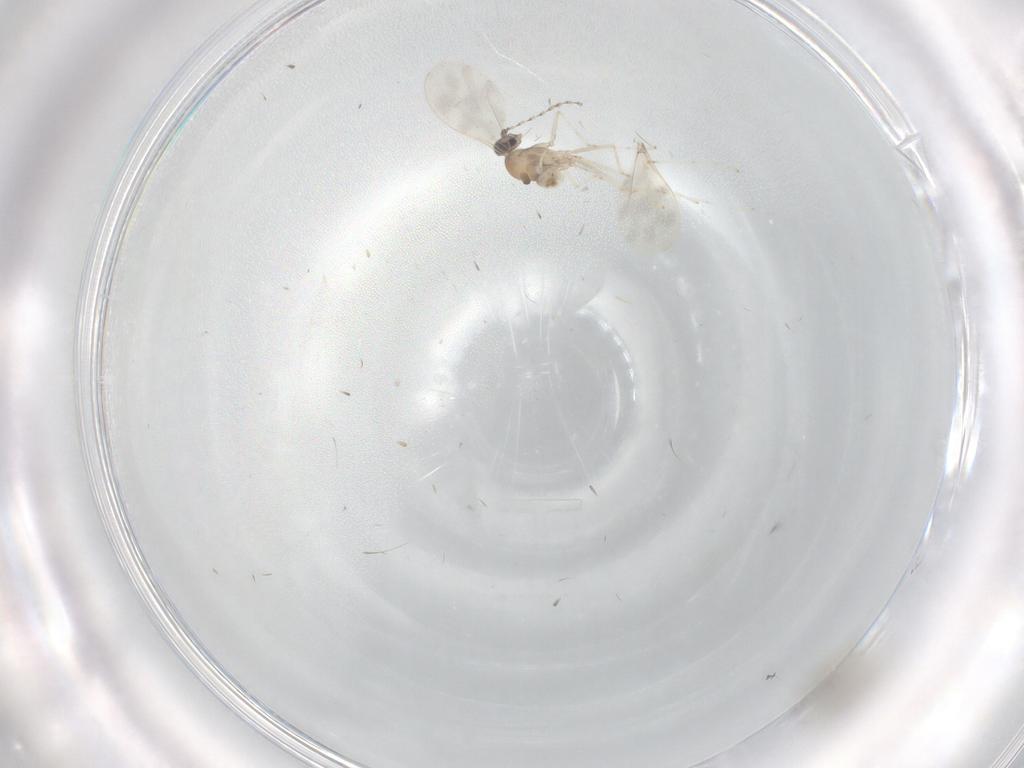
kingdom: Animalia
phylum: Arthropoda
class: Insecta
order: Diptera
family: Cecidomyiidae
